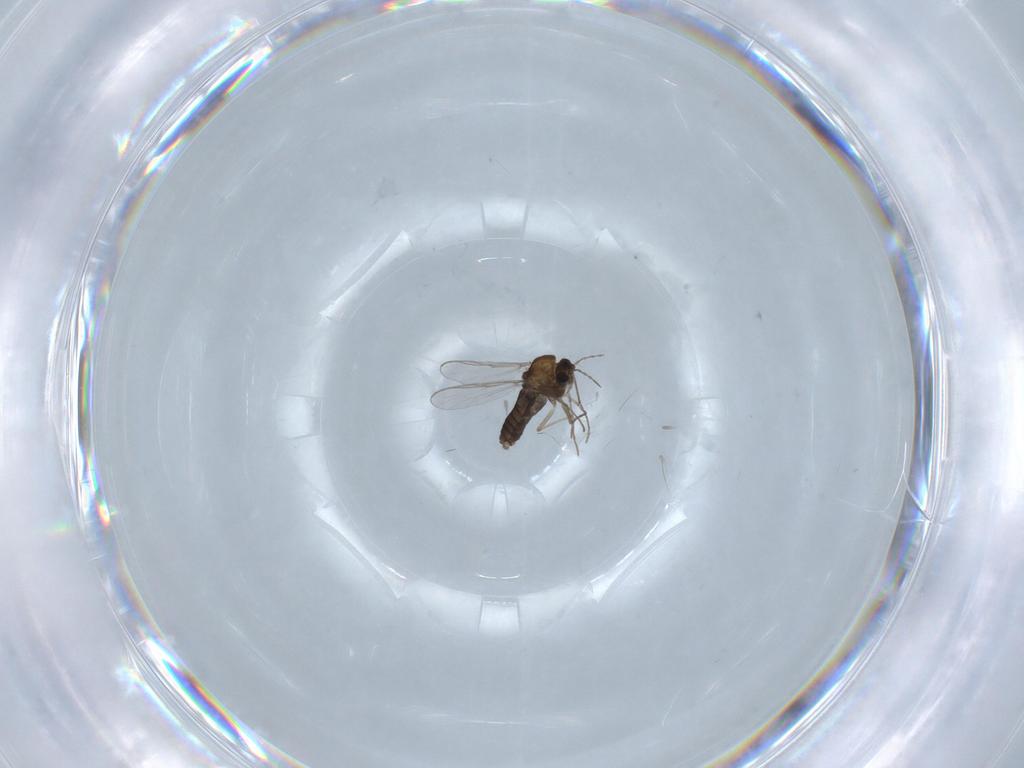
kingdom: Animalia
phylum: Arthropoda
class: Insecta
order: Diptera
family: Chironomidae
